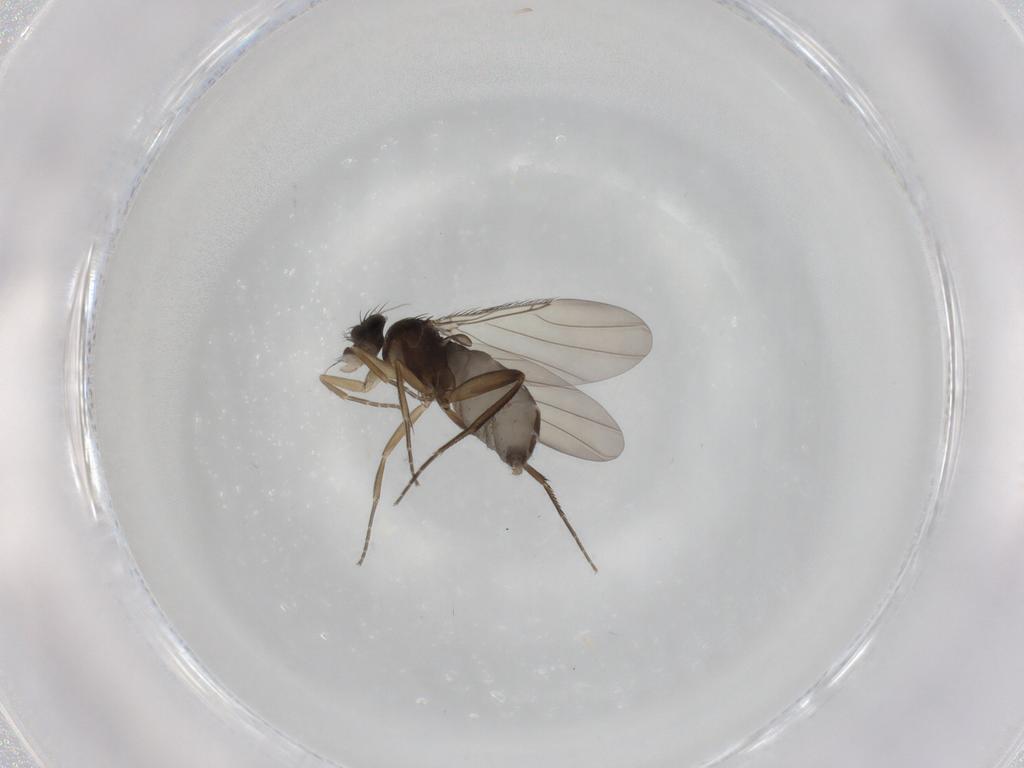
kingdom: Animalia
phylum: Arthropoda
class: Insecta
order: Diptera
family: Phoridae
